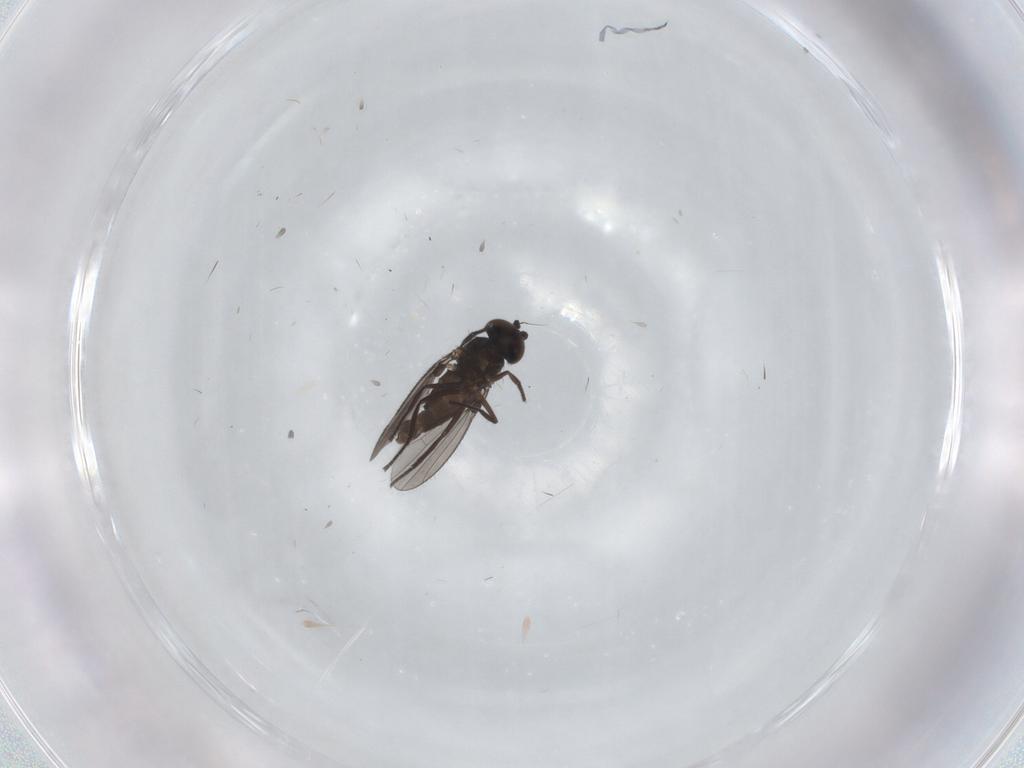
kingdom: Animalia
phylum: Arthropoda
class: Insecta
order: Diptera
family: Dolichopodidae
